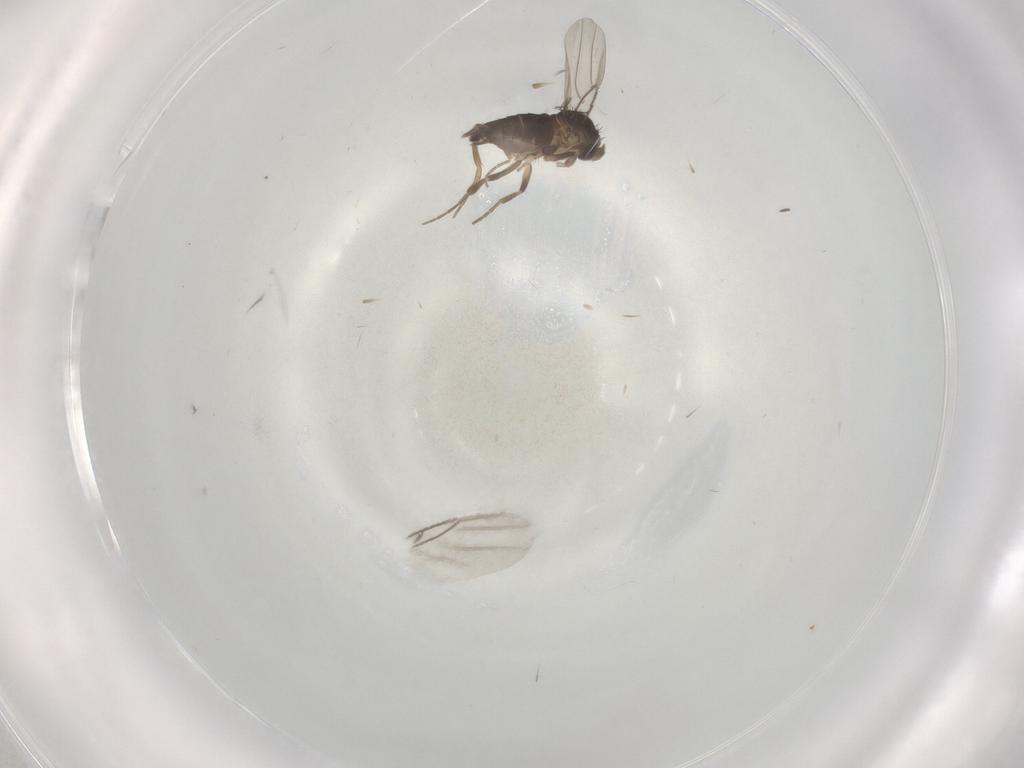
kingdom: Animalia
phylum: Arthropoda
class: Insecta
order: Diptera
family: Phoridae
